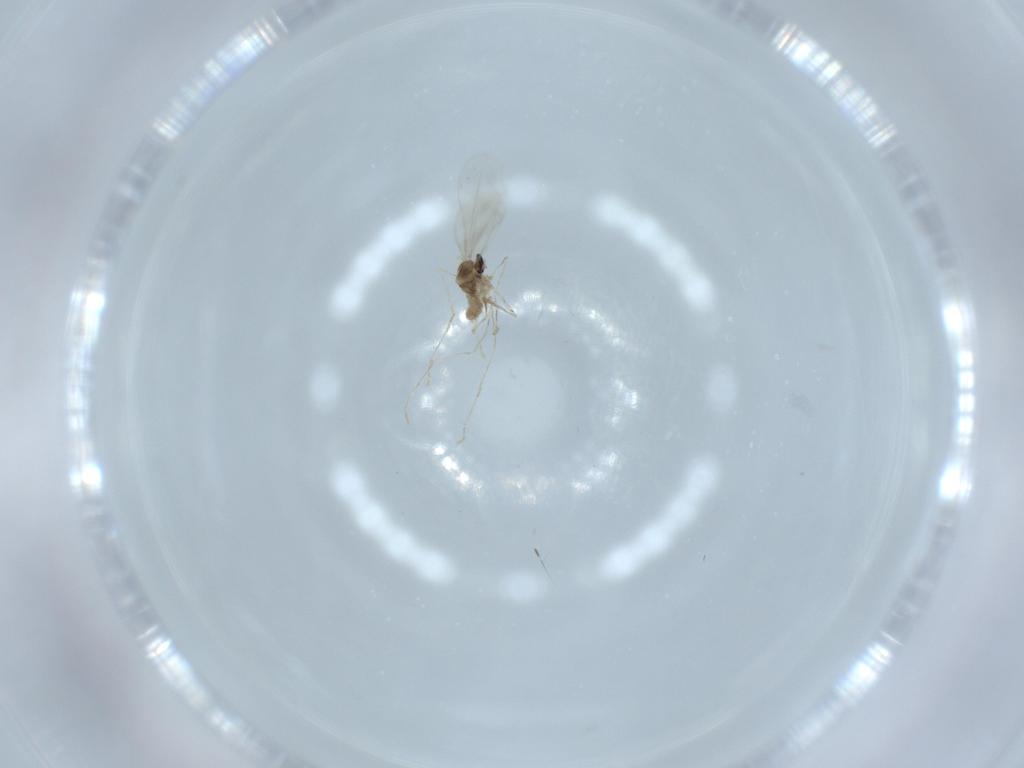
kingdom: Animalia
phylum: Arthropoda
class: Insecta
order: Diptera
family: Cecidomyiidae
